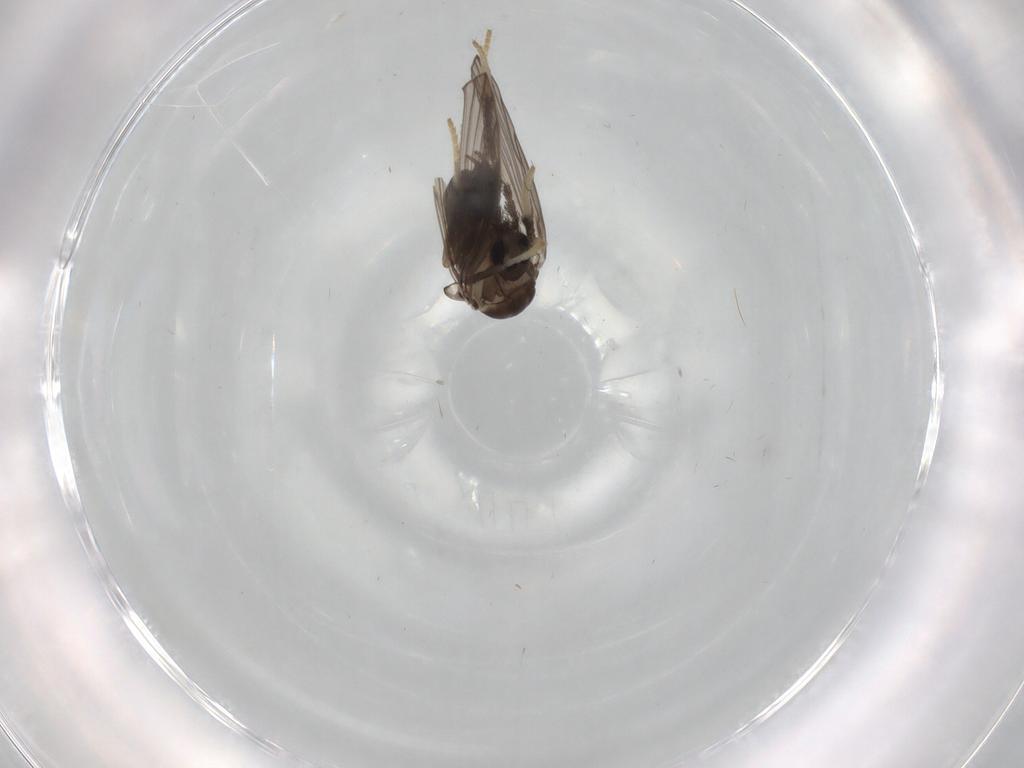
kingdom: Animalia
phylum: Arthropoda
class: Insecta
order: Diptera
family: Psychodidae
